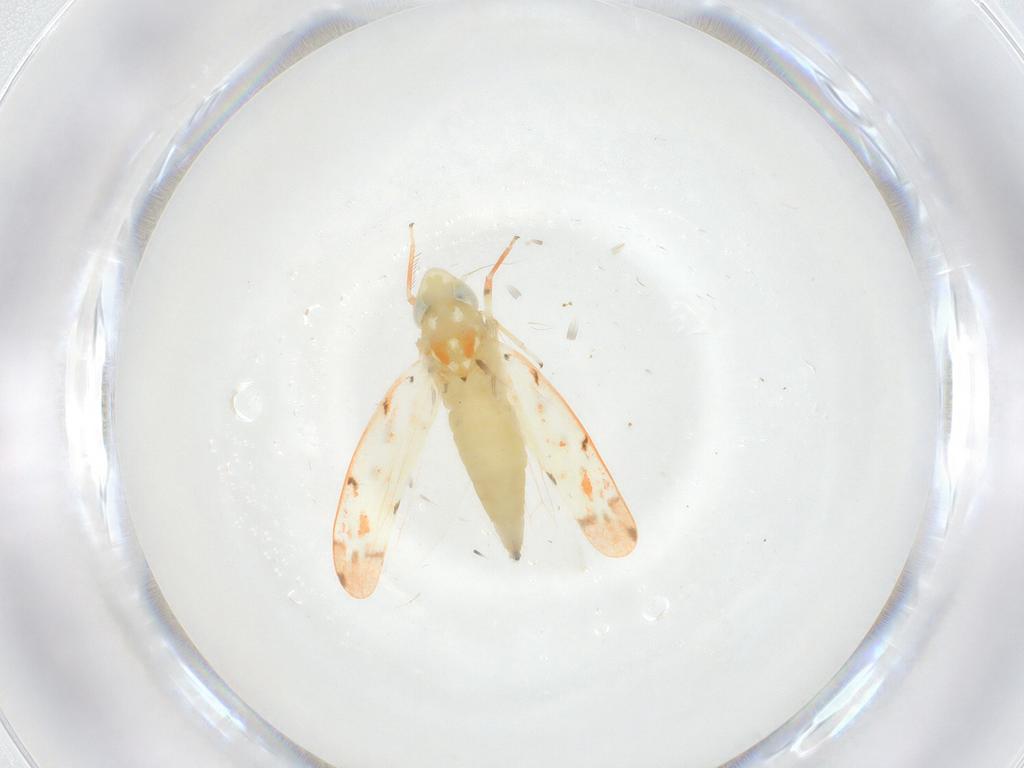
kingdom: Animalia
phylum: Arthropoda
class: Insecta
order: Hemiptera
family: Cicadellidae
